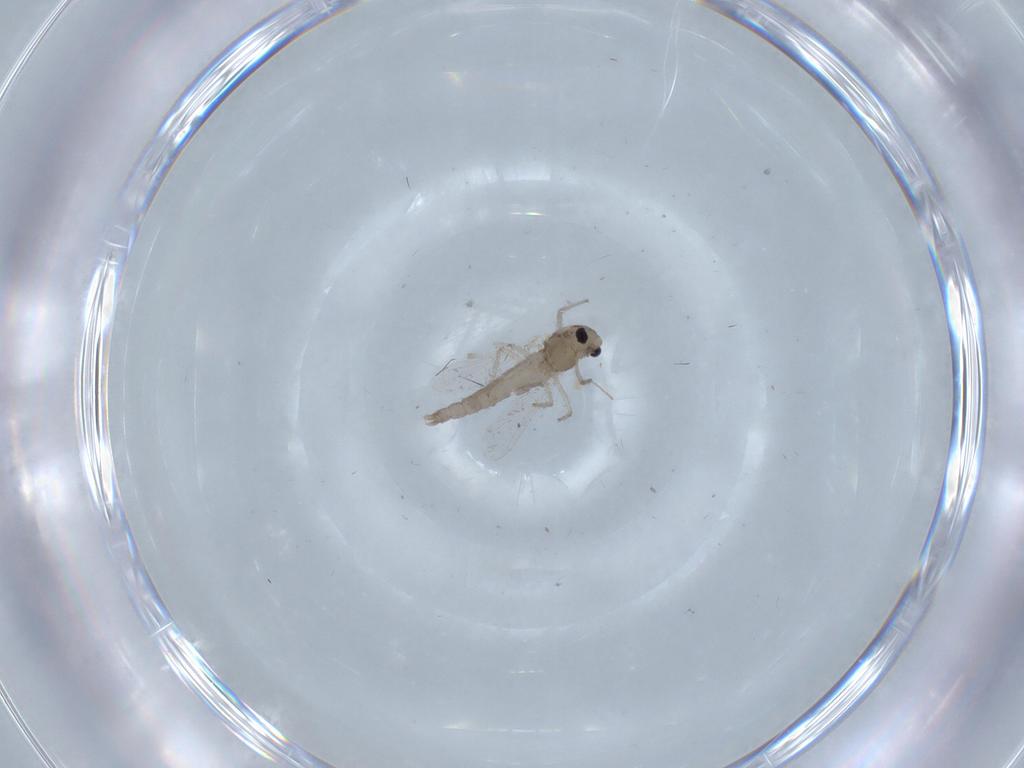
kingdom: Animalia
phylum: Arthropoda
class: Insecta
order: Diptera
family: Chironomidae
